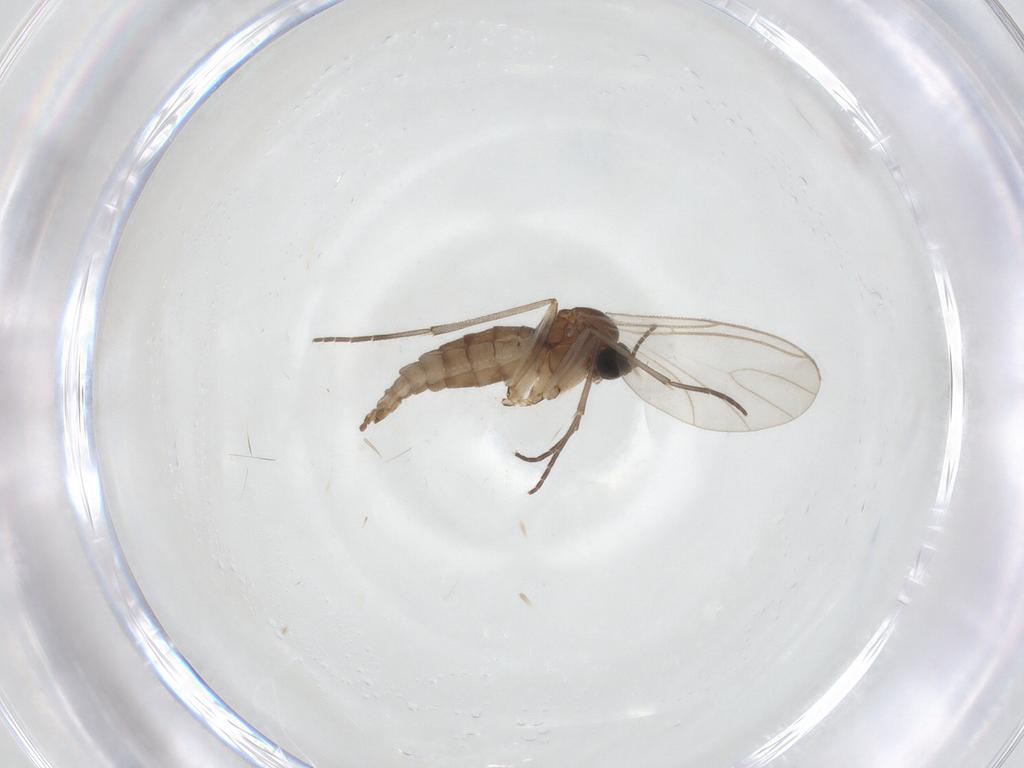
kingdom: Animalia
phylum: Arthropoda
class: Insecta
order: Diptera
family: Sciaridae
